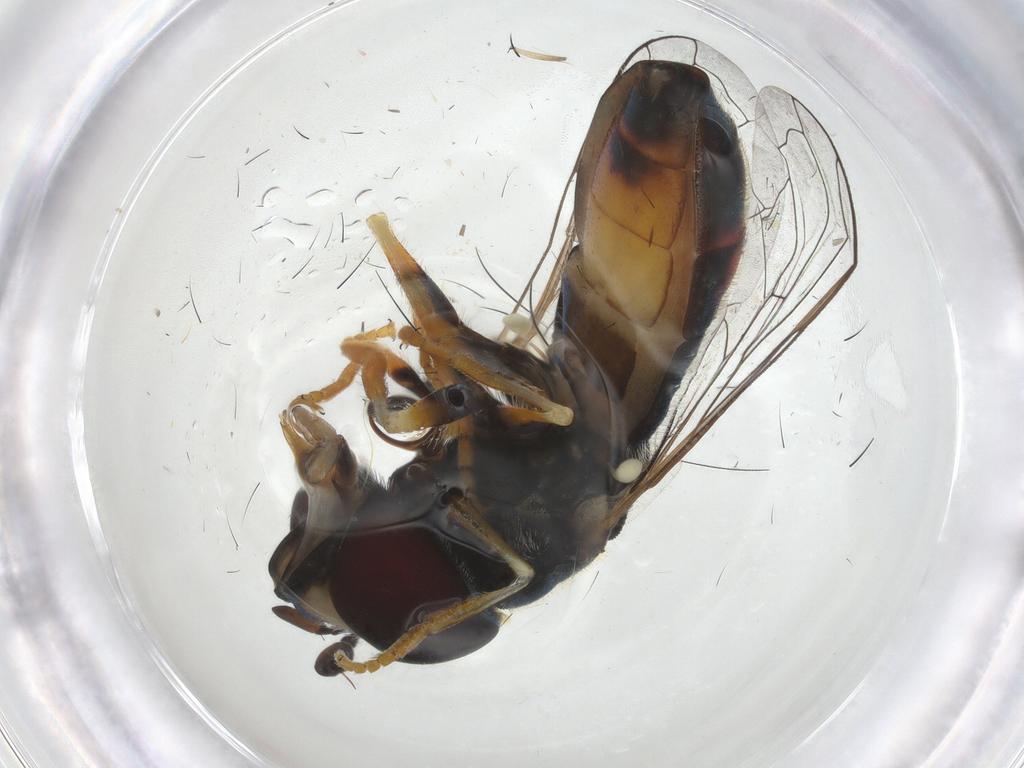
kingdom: Animalia
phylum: Arthropoda
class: Insecta
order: Diptera
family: Syrphidae
